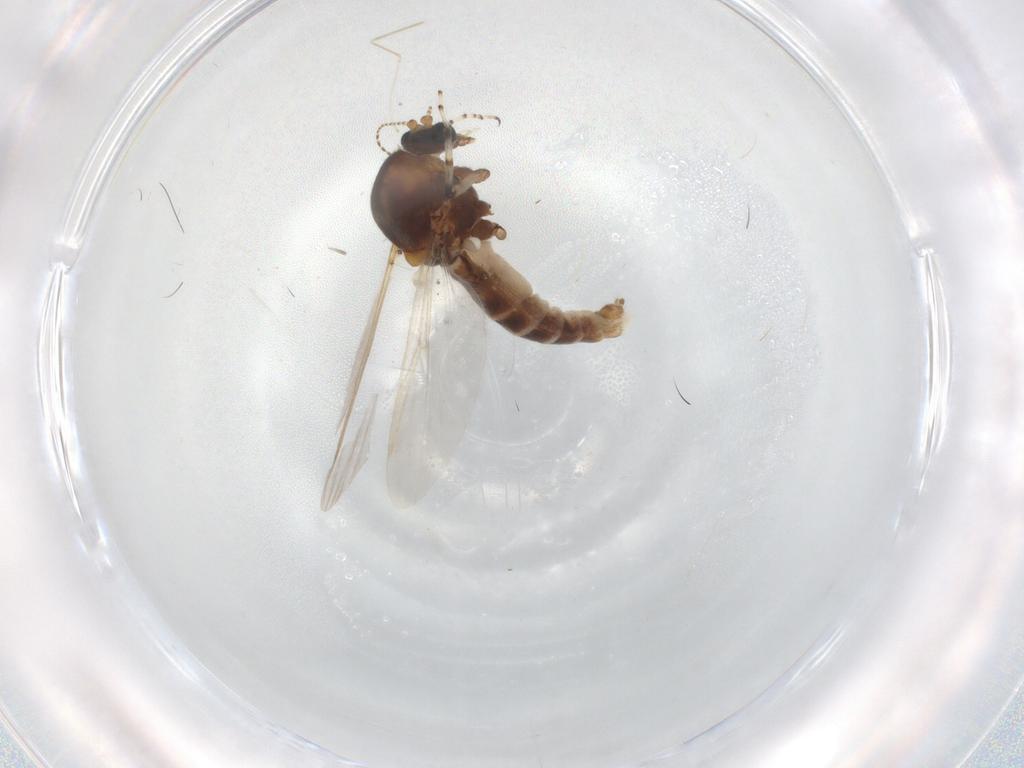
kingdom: Animalia
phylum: Arthropoda
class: Insecta
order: Diptera
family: Ceratopogonidae
